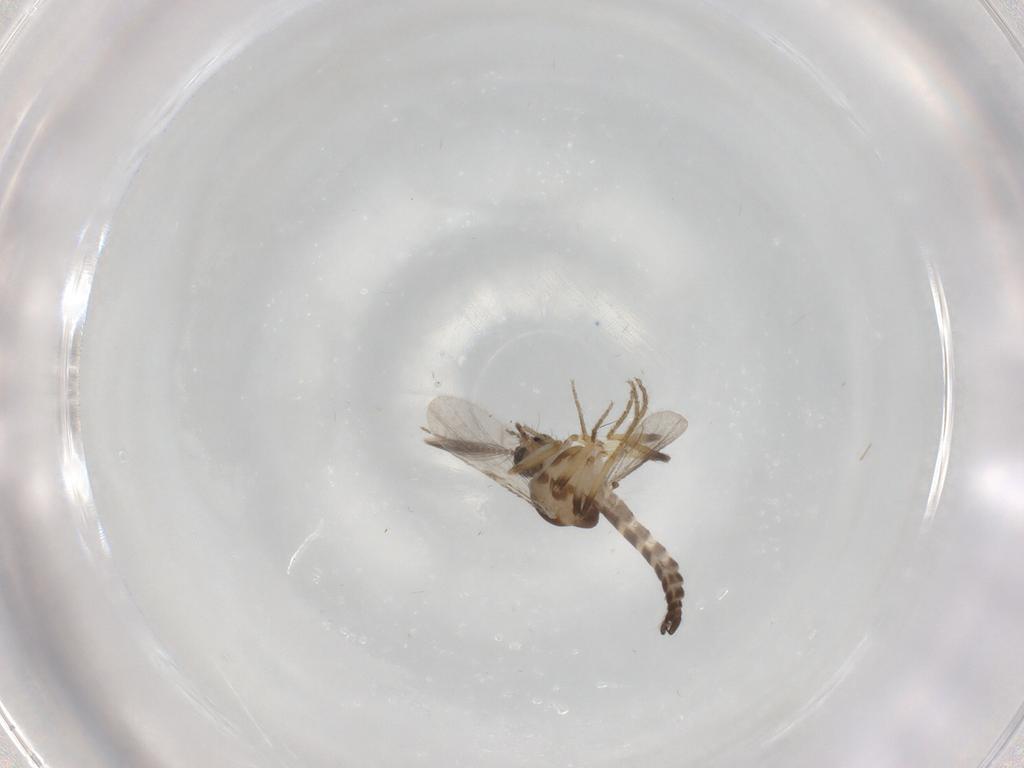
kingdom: Animalia
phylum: Arthropoda
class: Insecta
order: Diptera
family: Ceratopogonidae
